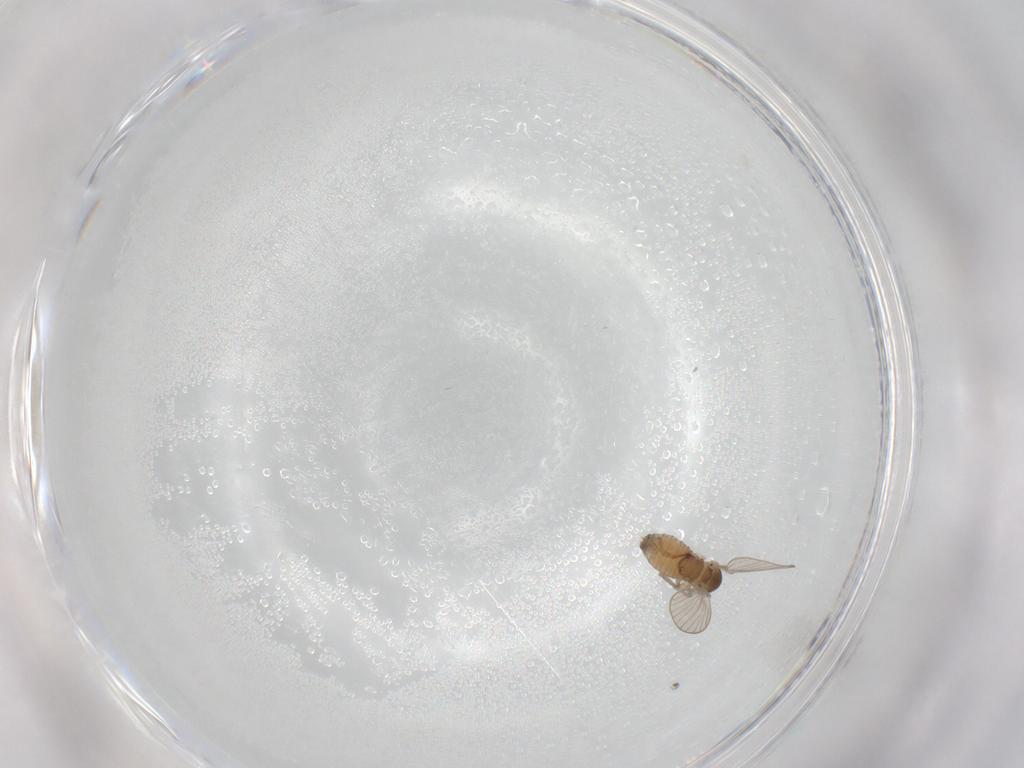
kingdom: Animalia
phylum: Arthropoda
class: Insecta
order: Diptera
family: Psychodidae
